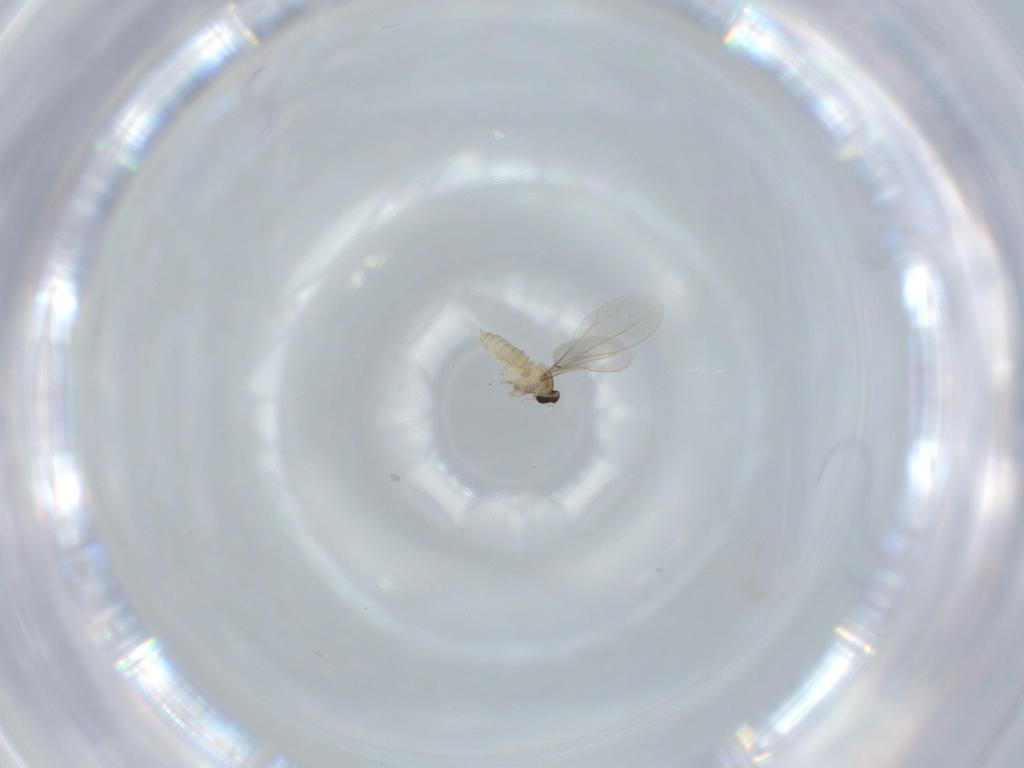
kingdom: Animalia
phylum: Arthropoda
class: Insecta
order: Diptera
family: Cecidomyiidae
